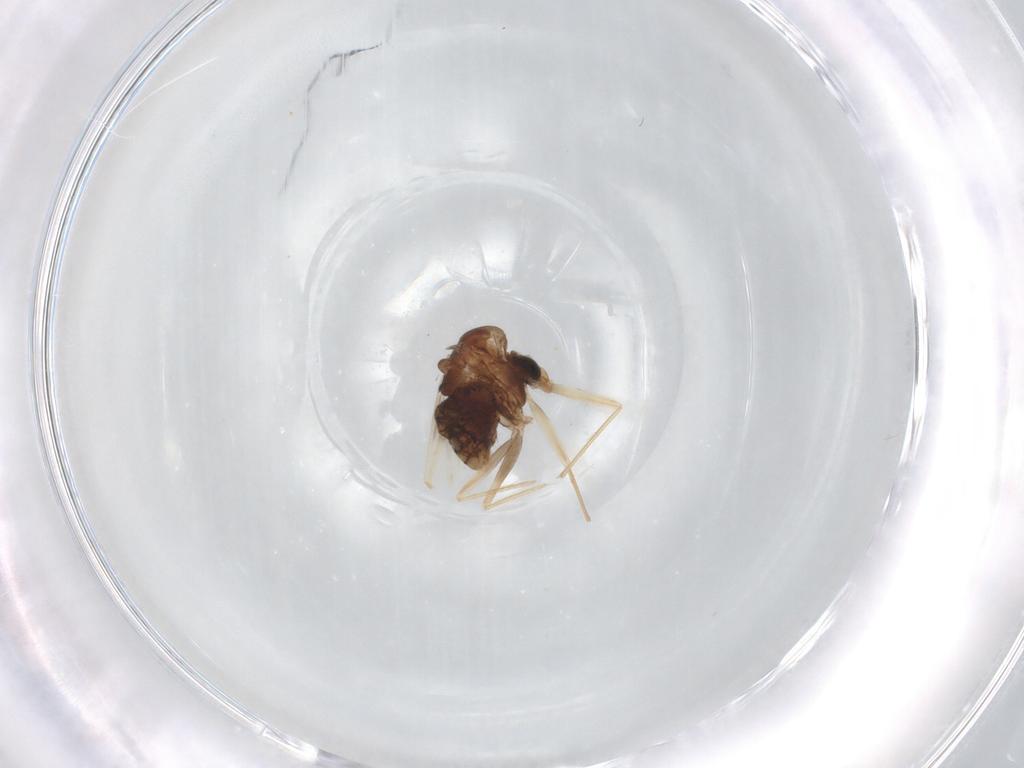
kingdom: Animalia
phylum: Arthropoda
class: Insecta
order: Diptera
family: Chironomidae
